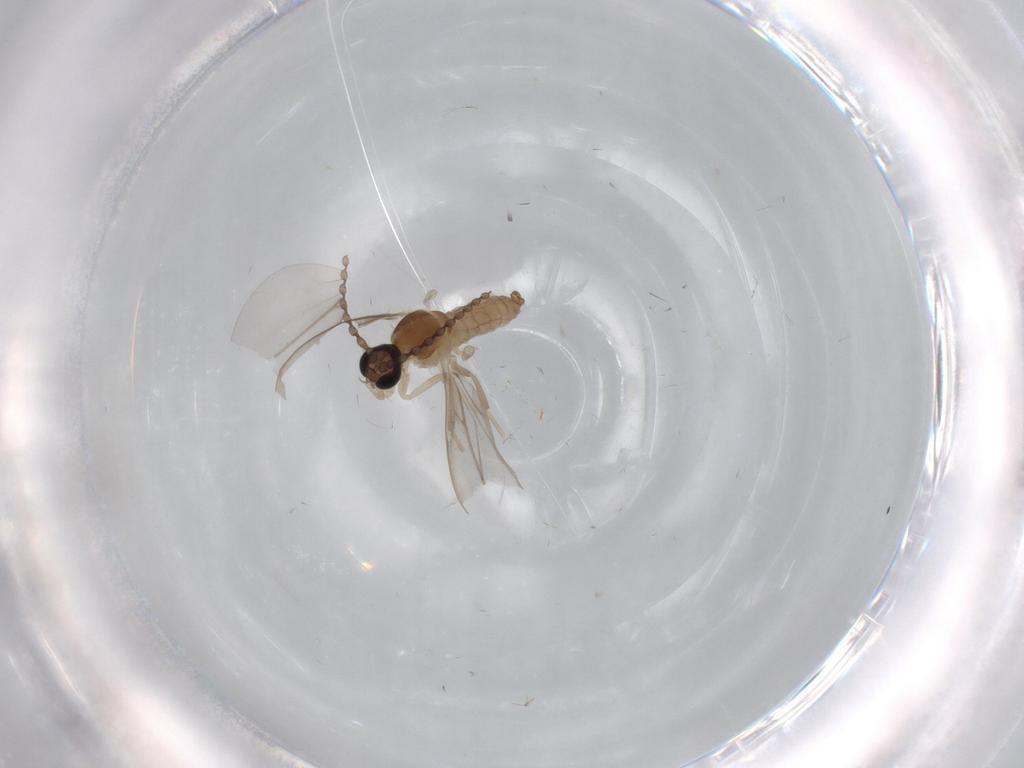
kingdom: Animalia
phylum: Arthropoda
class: Insecta
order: Diptera
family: Cecidomyiidae
